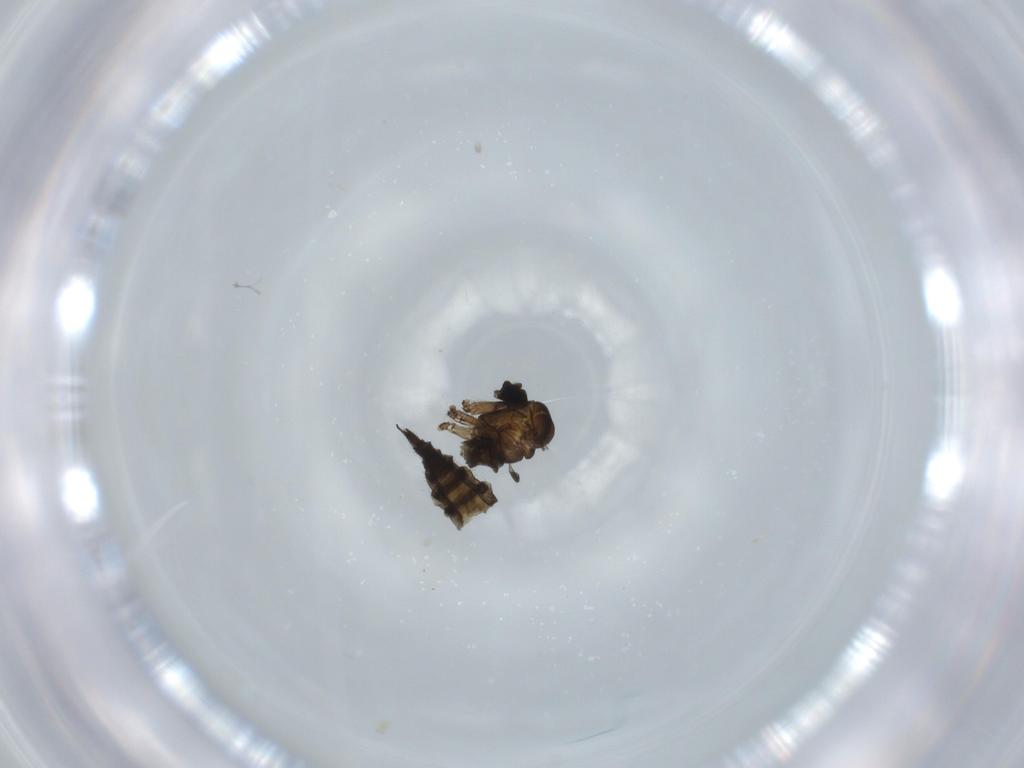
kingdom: Animalia
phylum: Arthropoda
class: Insecta
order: Diptera
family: Sciaridae
